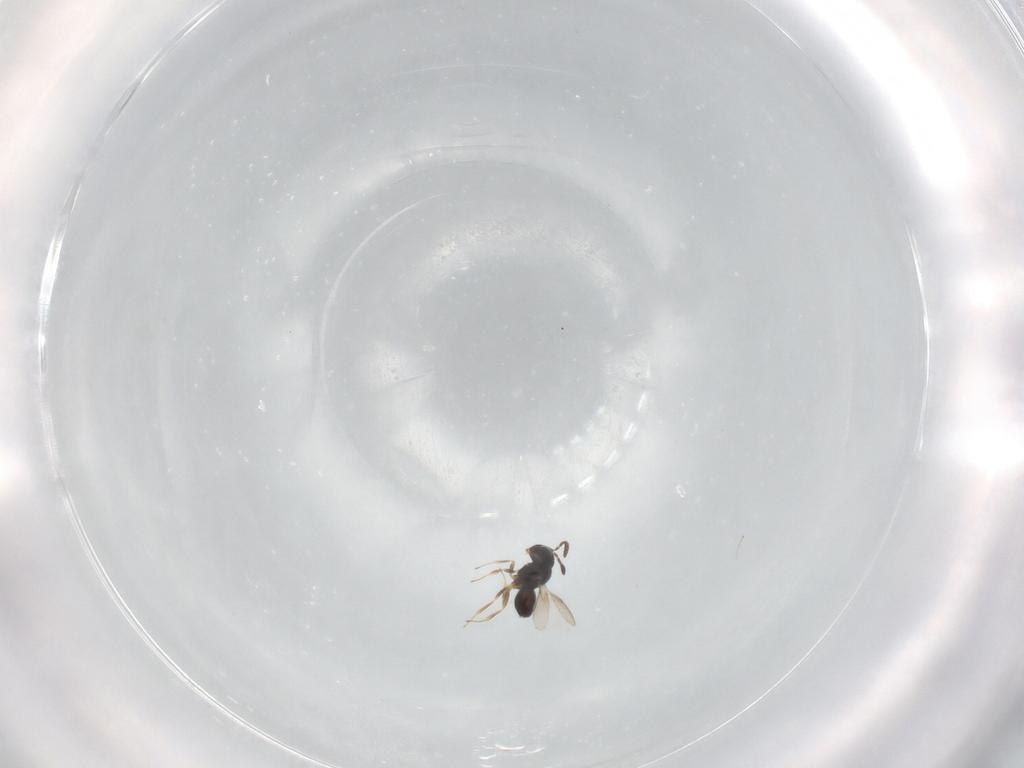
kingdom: Animalia
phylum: Arthropoda
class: Insecta
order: Hymenoptera
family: Scelionidae
